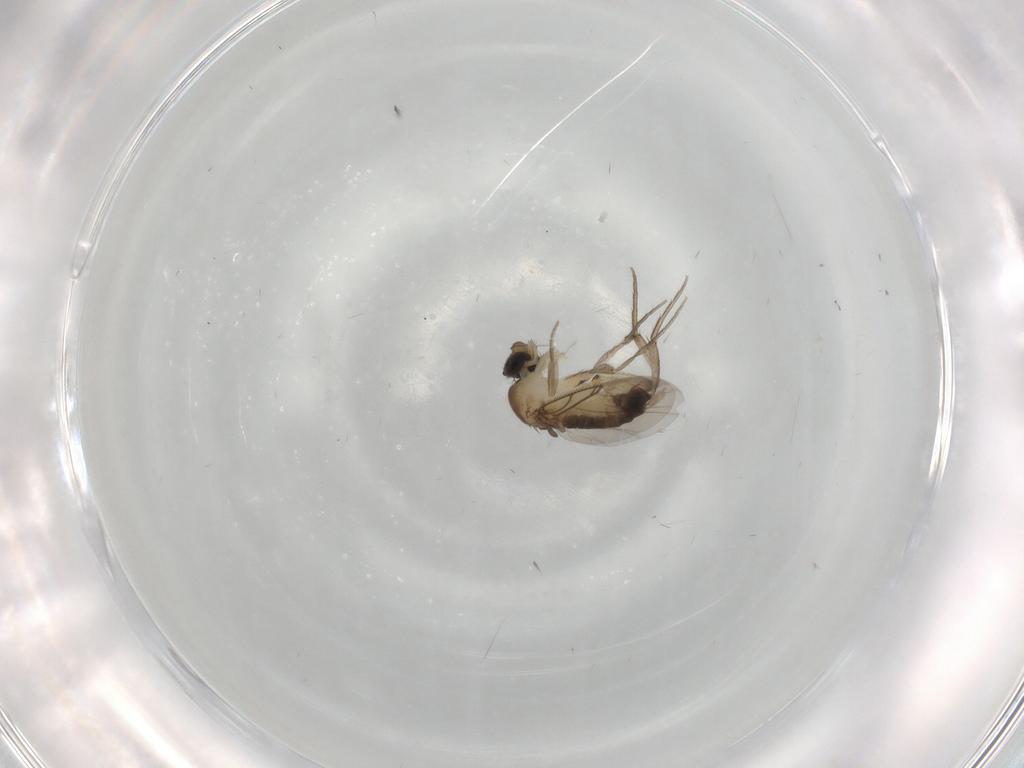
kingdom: Animalia
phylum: Arthropoda
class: Insecta
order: Diptera
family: Phoridae
